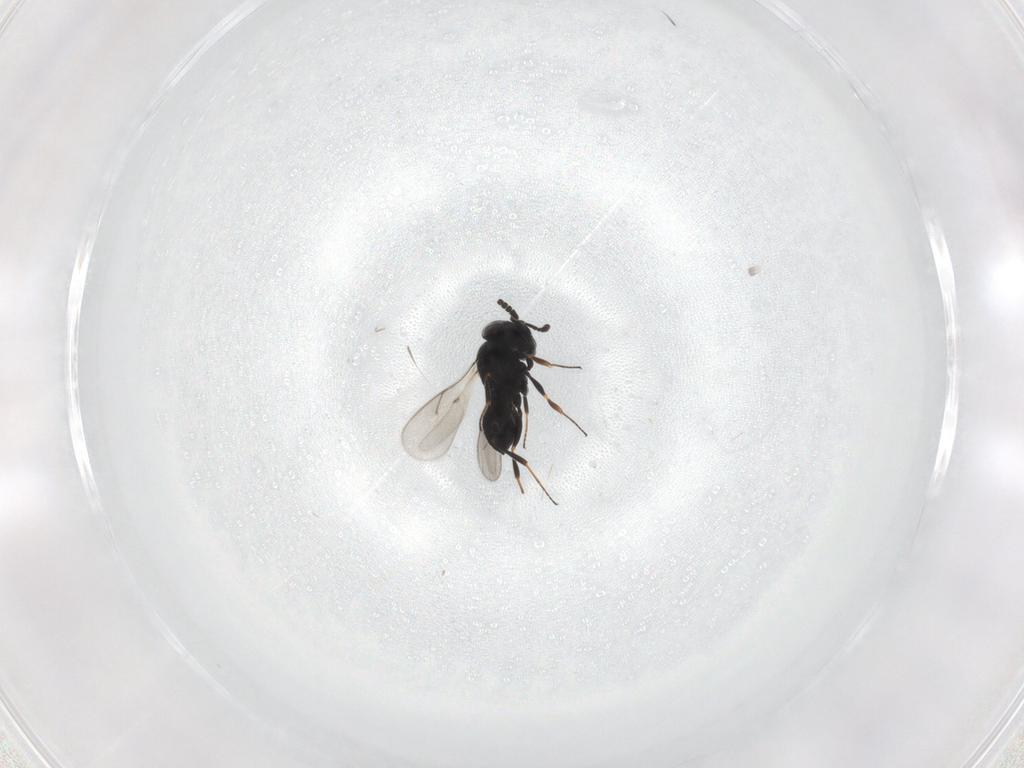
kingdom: Animalia
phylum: Arthropoda
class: Insecta
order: Hymenoptera
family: Scelionidae
